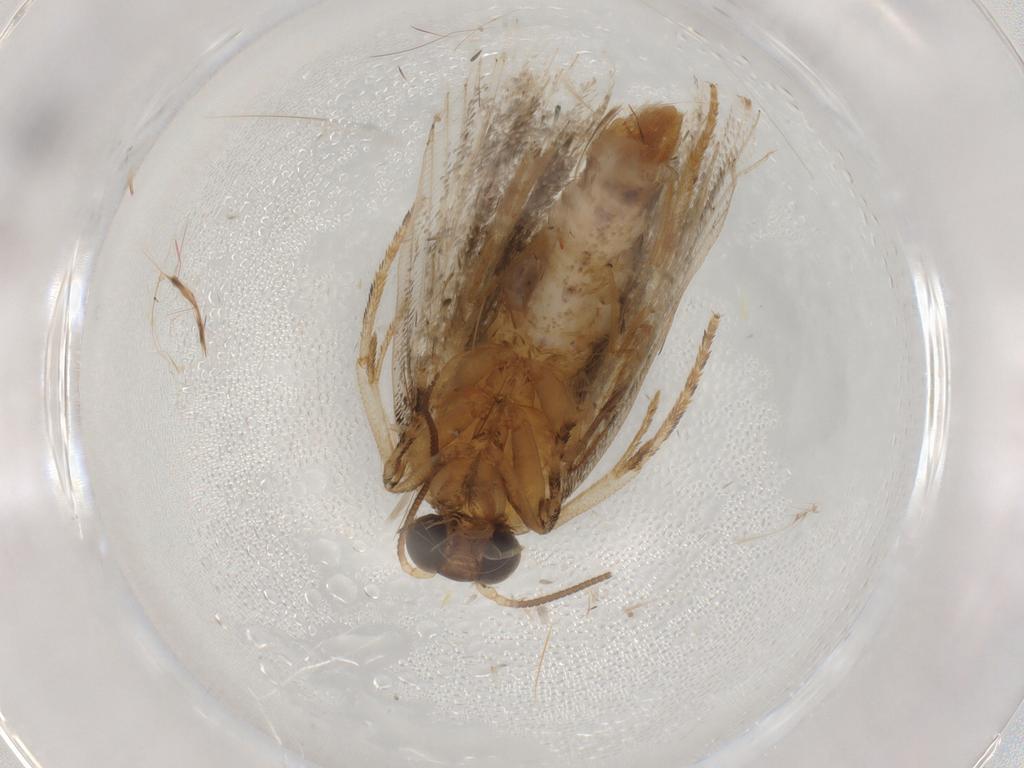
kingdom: Animalia
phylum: Arthropoda
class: Insecta
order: Lepidoptera
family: Tortricidae
